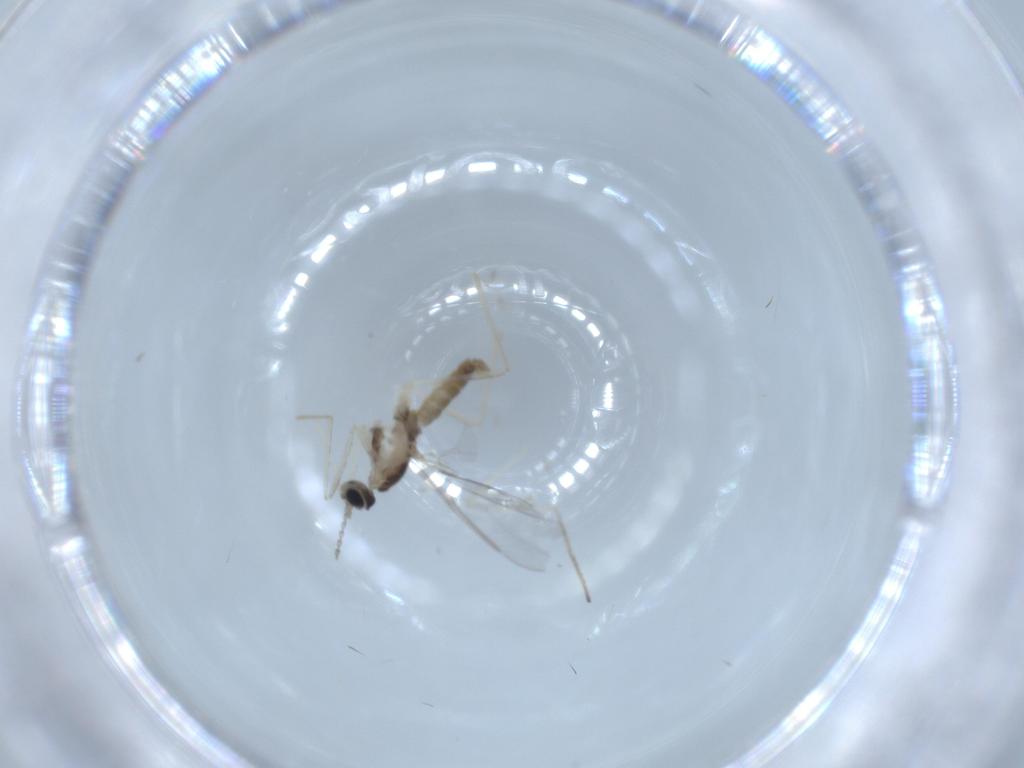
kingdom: Animalia
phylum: Arthropoda
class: Insecta
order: Diptera
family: Cecidomyiidae
